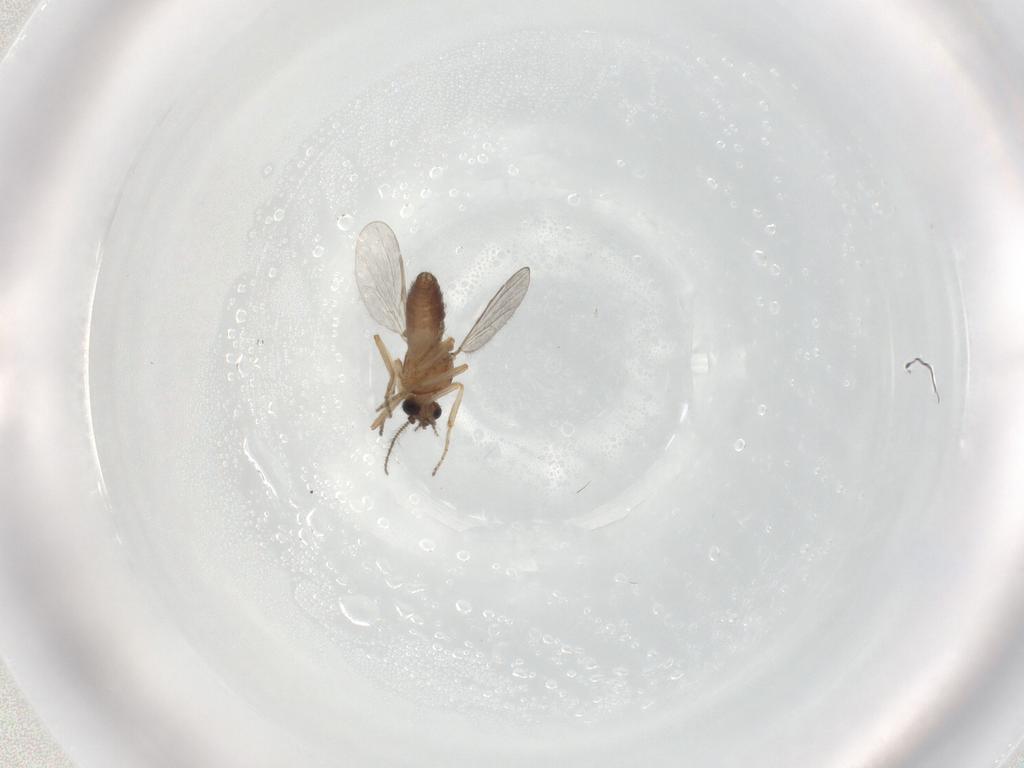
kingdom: Animalia
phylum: Arthropoda
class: Insecta
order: Diptera
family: Ceratopogonidae
